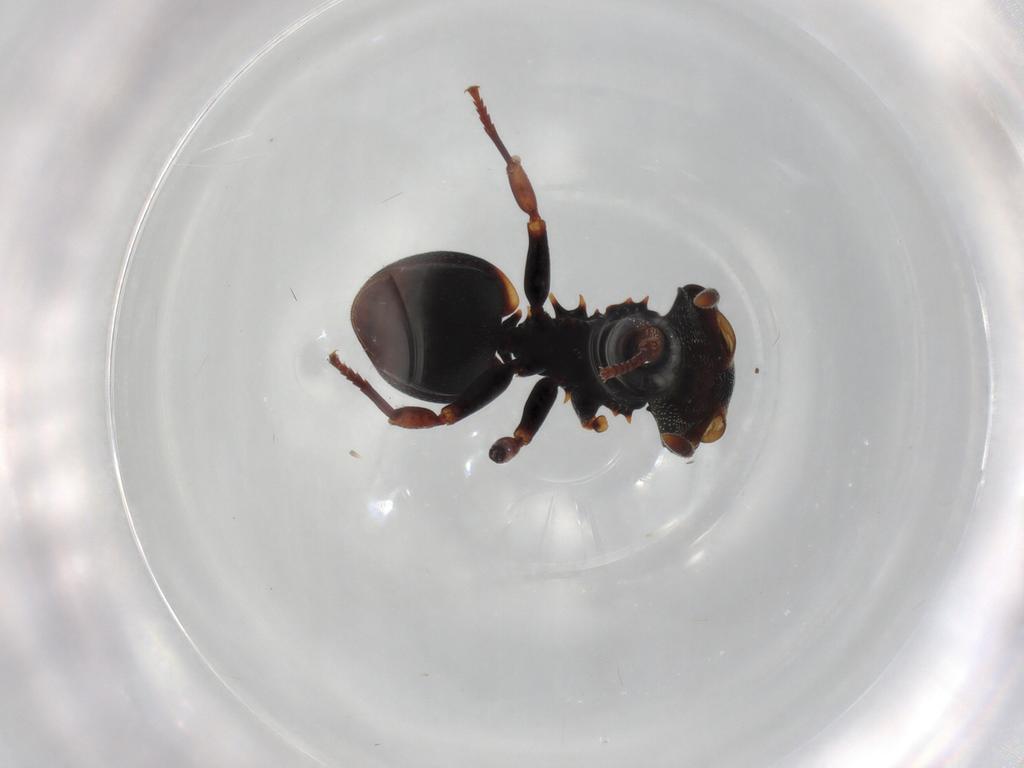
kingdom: Animalia
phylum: Arthropoda
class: Insecta
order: Hymenoptera
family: Formicidae
